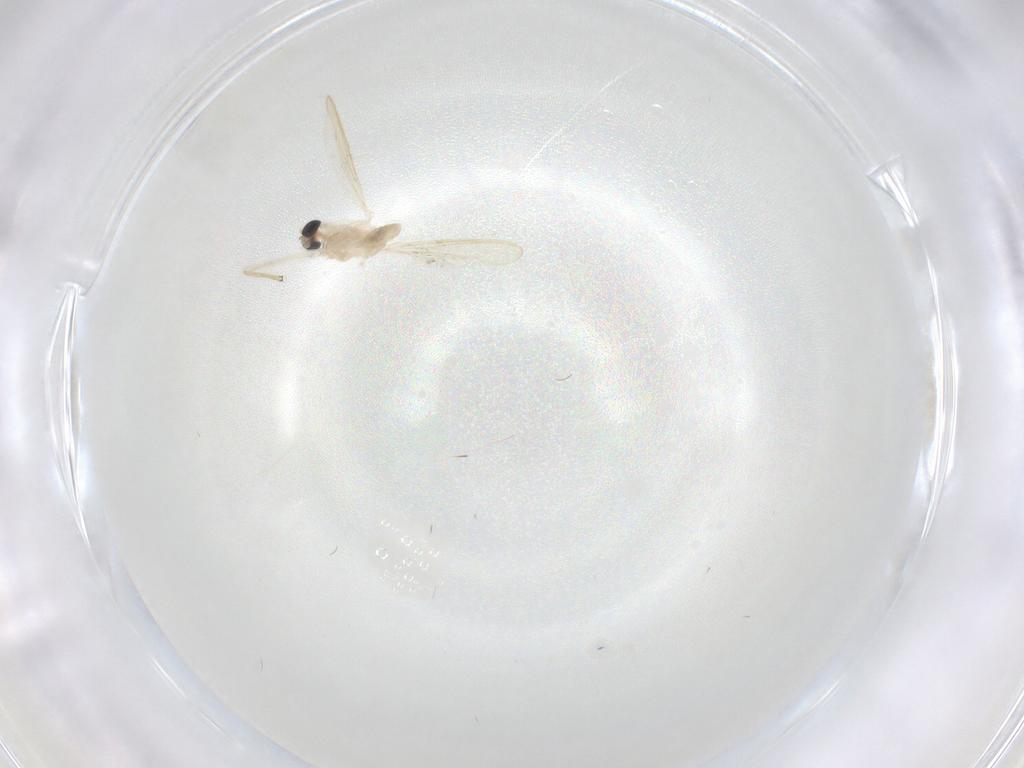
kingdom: Animalia
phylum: Arthropoda
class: Insecta
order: Diptera
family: Chironomidae
